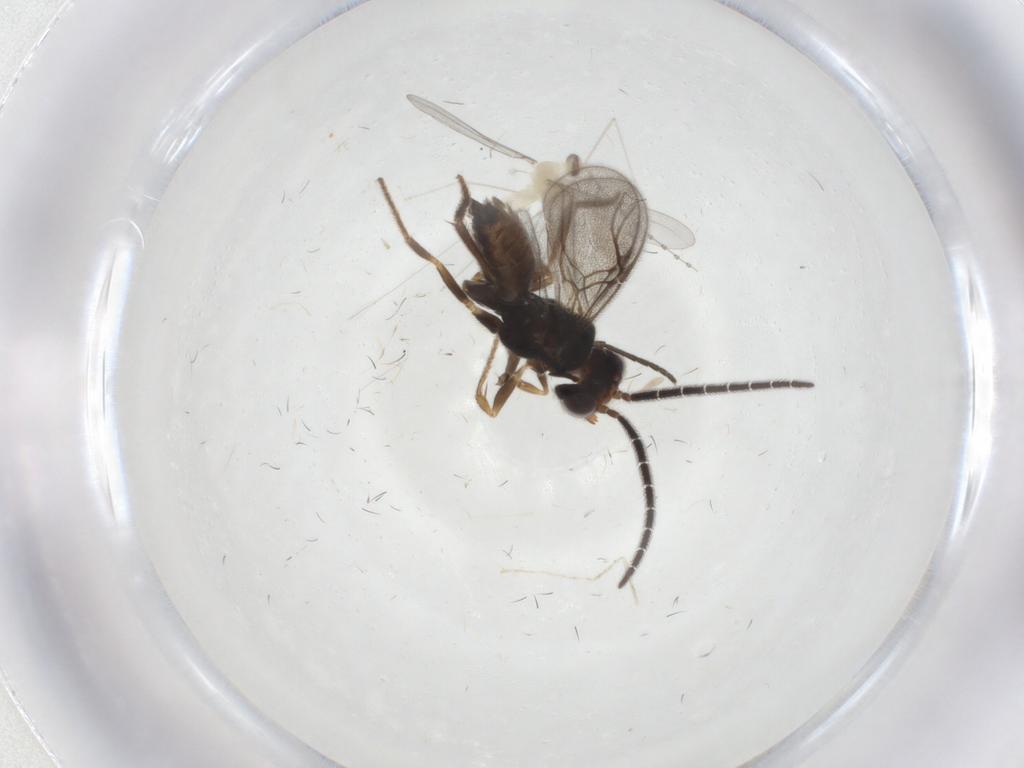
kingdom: Animalia
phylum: Arthropoda
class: Insecta
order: Hymenoptera
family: Dryinidae
